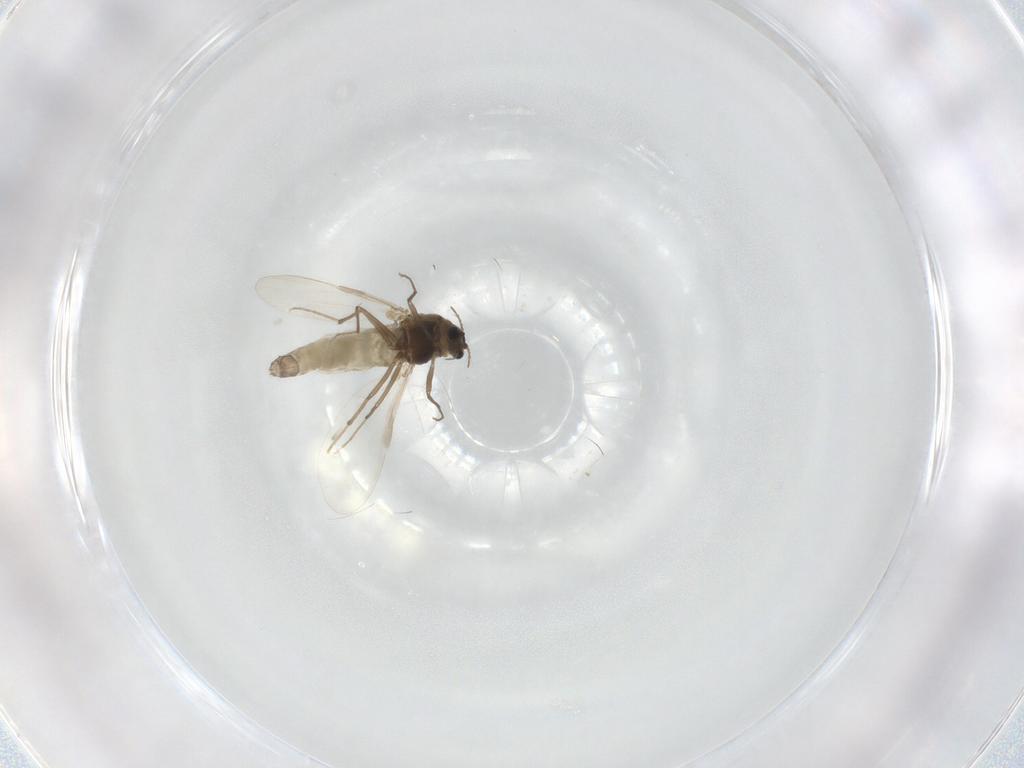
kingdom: Animalia
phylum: Arthropoda
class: Insecta
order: Diptera
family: Chironomidae
